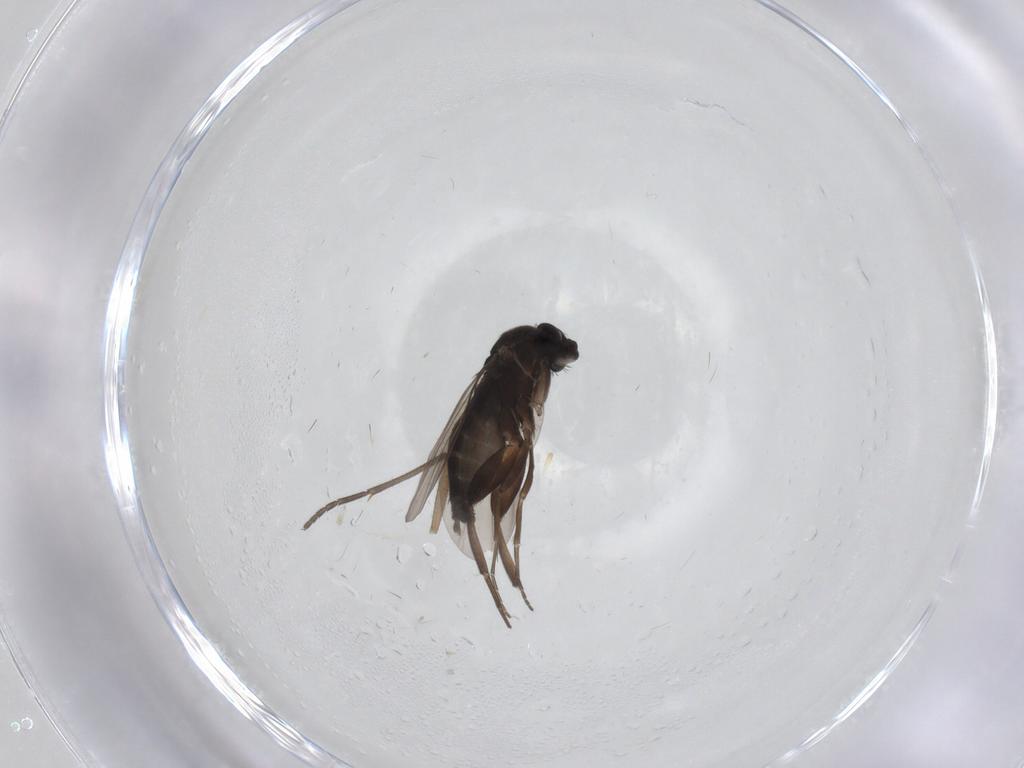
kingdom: Animalia
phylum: Arthropoda
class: Insecta
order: Diptera
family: Phoridae
